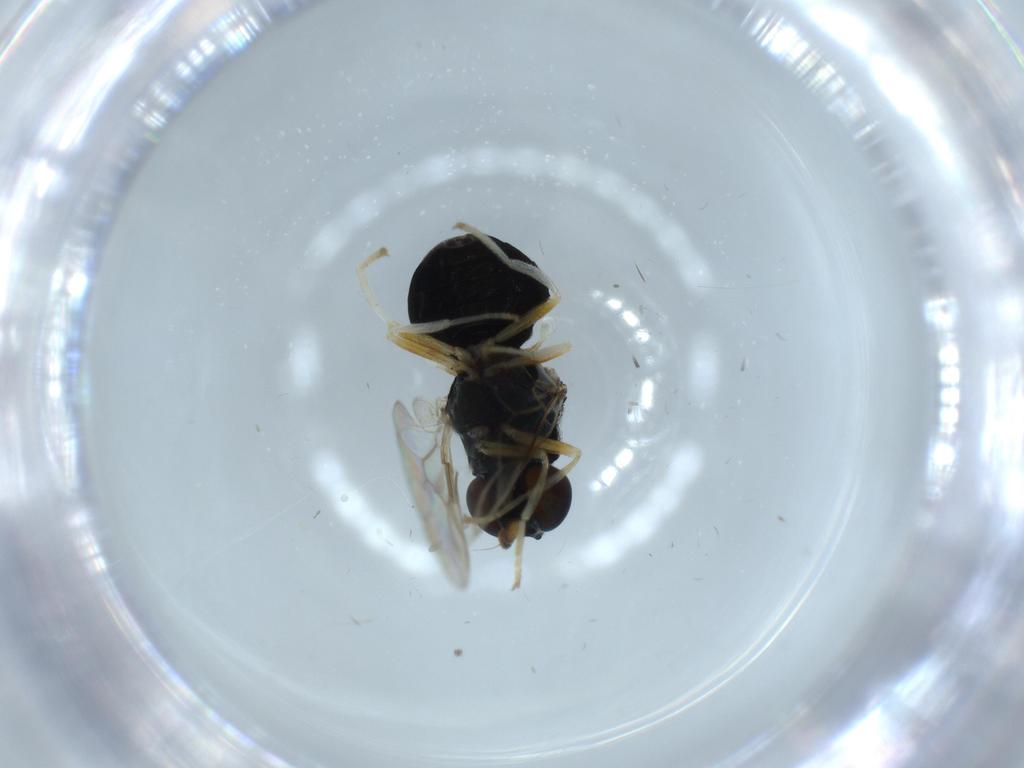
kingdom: Animalia
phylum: Arthropoda
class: Insecta
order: Diptera
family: Stratiomyidae
